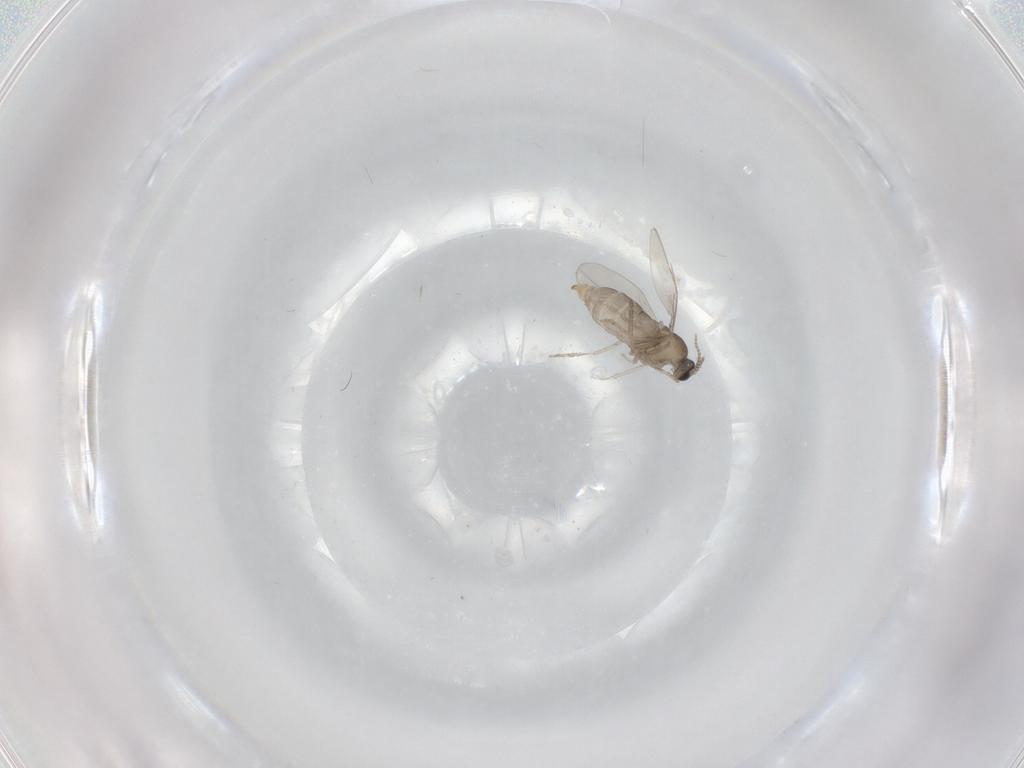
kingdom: Animalia
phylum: Arthropoda
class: Insecta
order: Diptera
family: Cecidomyiidae
